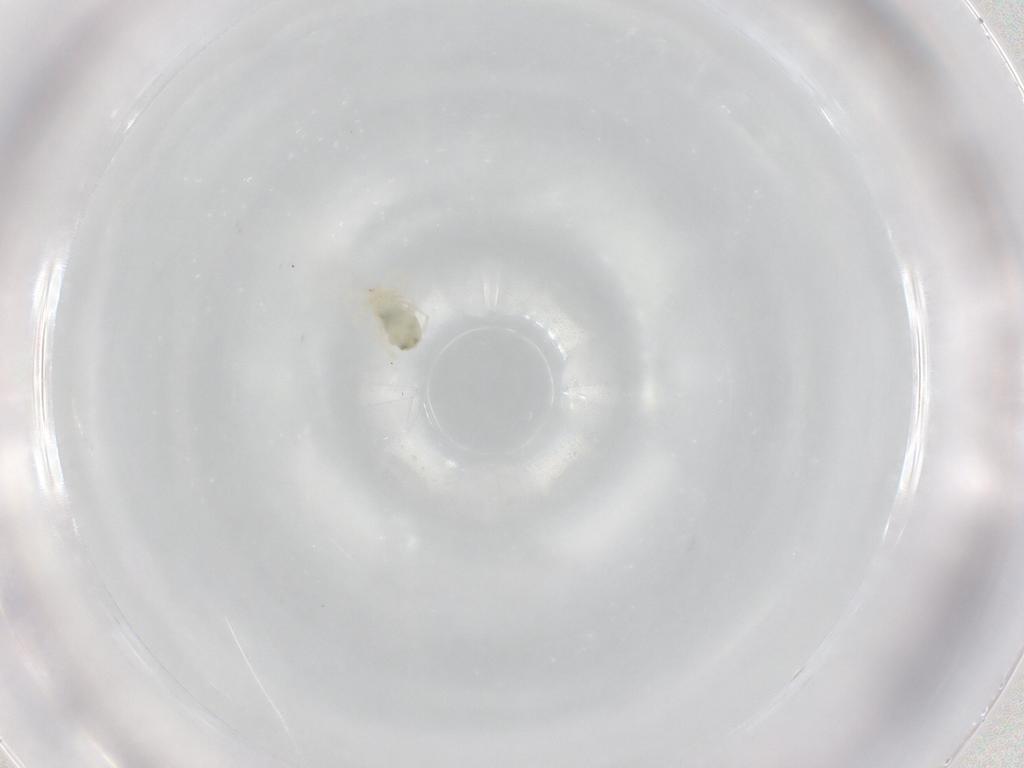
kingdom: Animalia
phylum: Arthropoda
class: Arachnida
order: Trombidiformes
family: Anystidae
